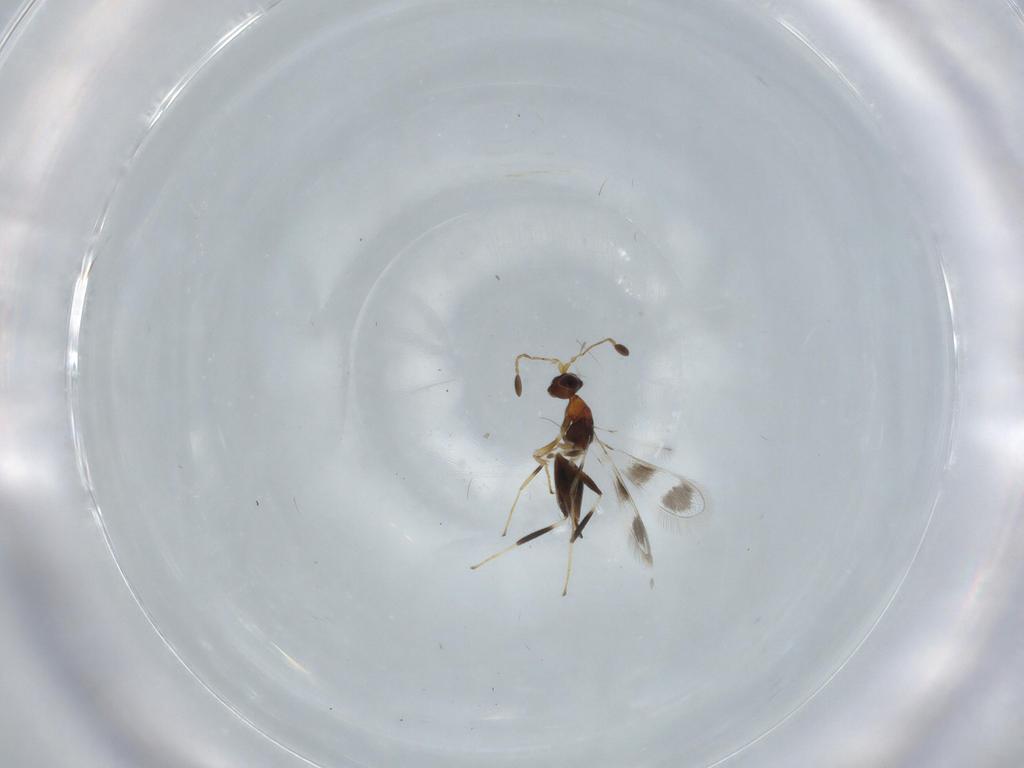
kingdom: Animalia
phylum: Arthropoda
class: Insecta
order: Hymenoptera
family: Mymaridae
